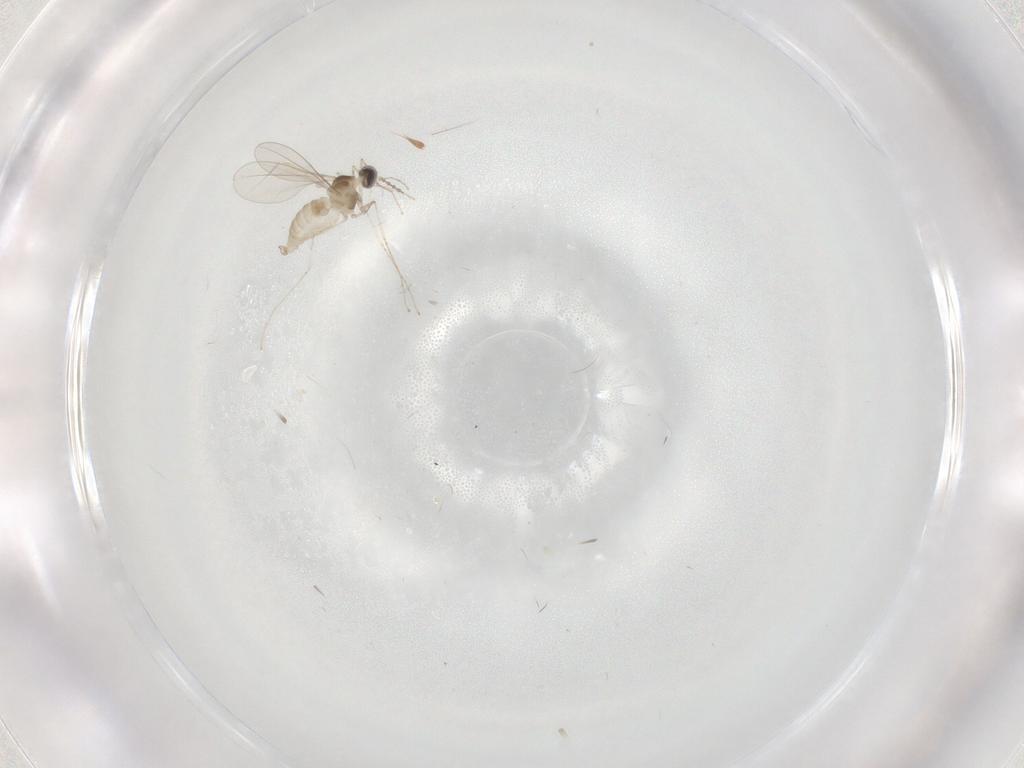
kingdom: Animalia
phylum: Arthropoda
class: Insecta
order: Diptera
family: Cecidomyiidae
